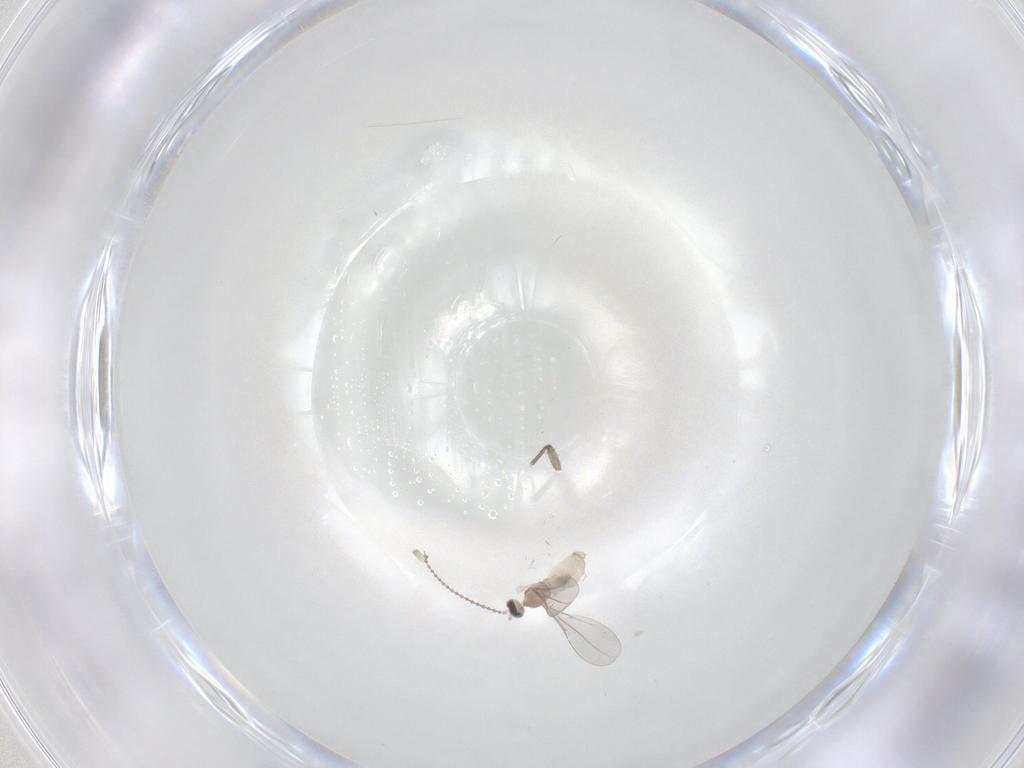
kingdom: Animalia
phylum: Arthropoda
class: Insecta
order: Diptera
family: Cecidomyiidae
